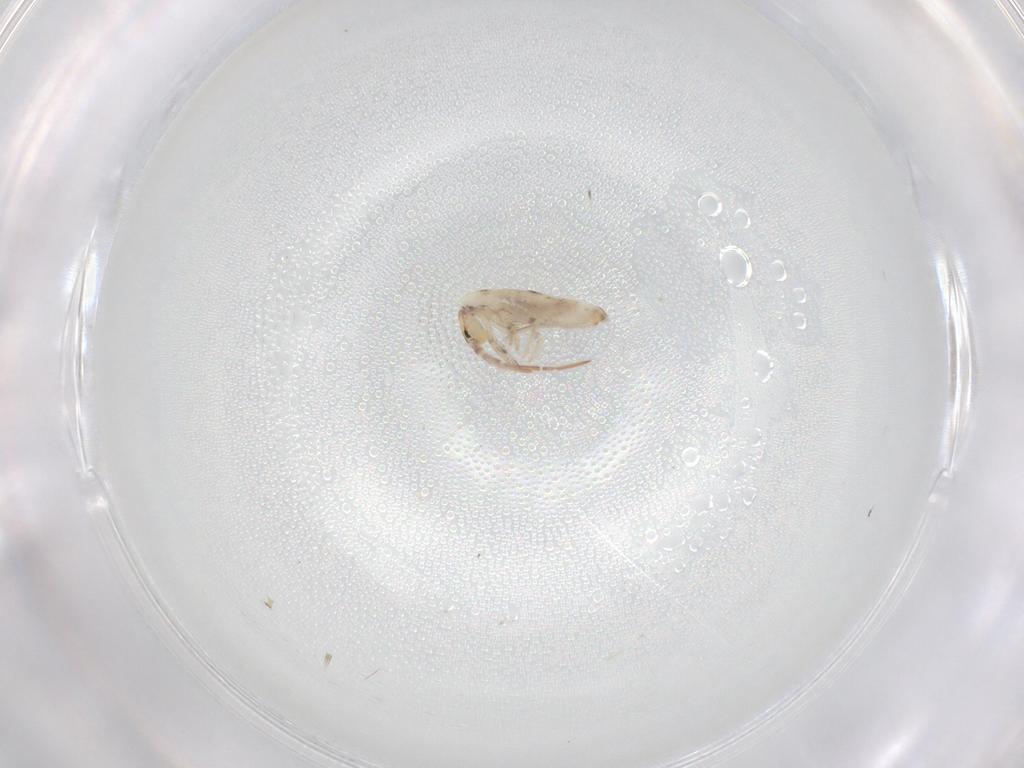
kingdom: Animalia
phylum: Arthropoda
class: Collembola
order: Entomobryomorpha
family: Entomobryidae
